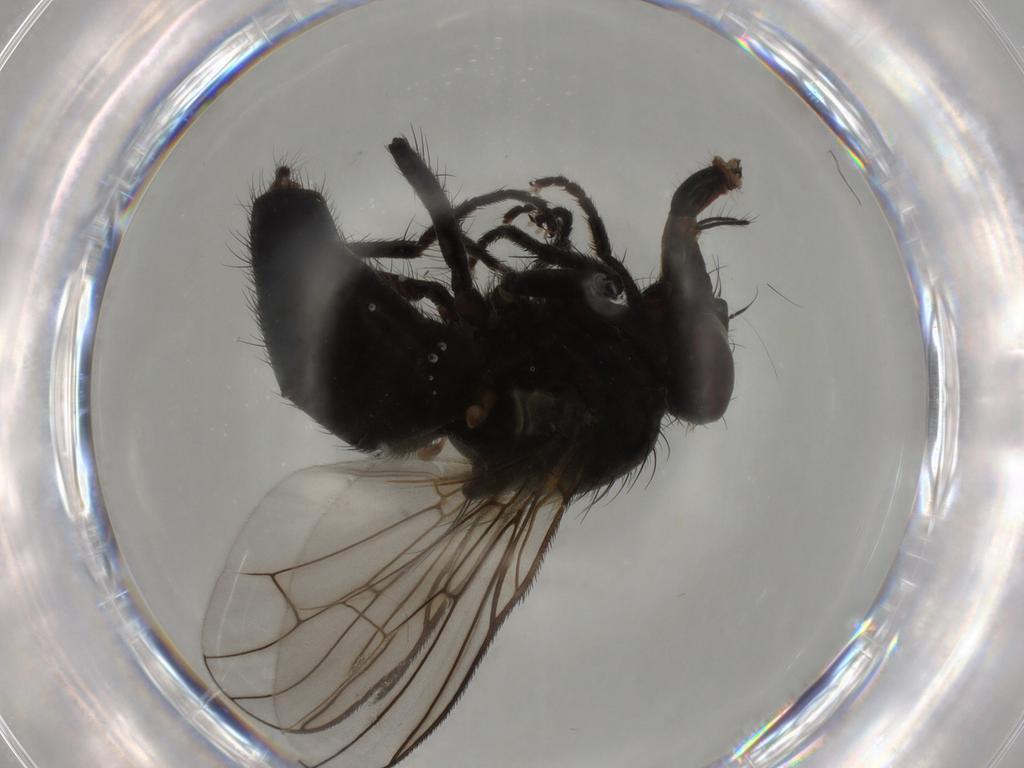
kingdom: Animalia
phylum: Arthropoda
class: Insecta
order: Diptera
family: Muscidae
